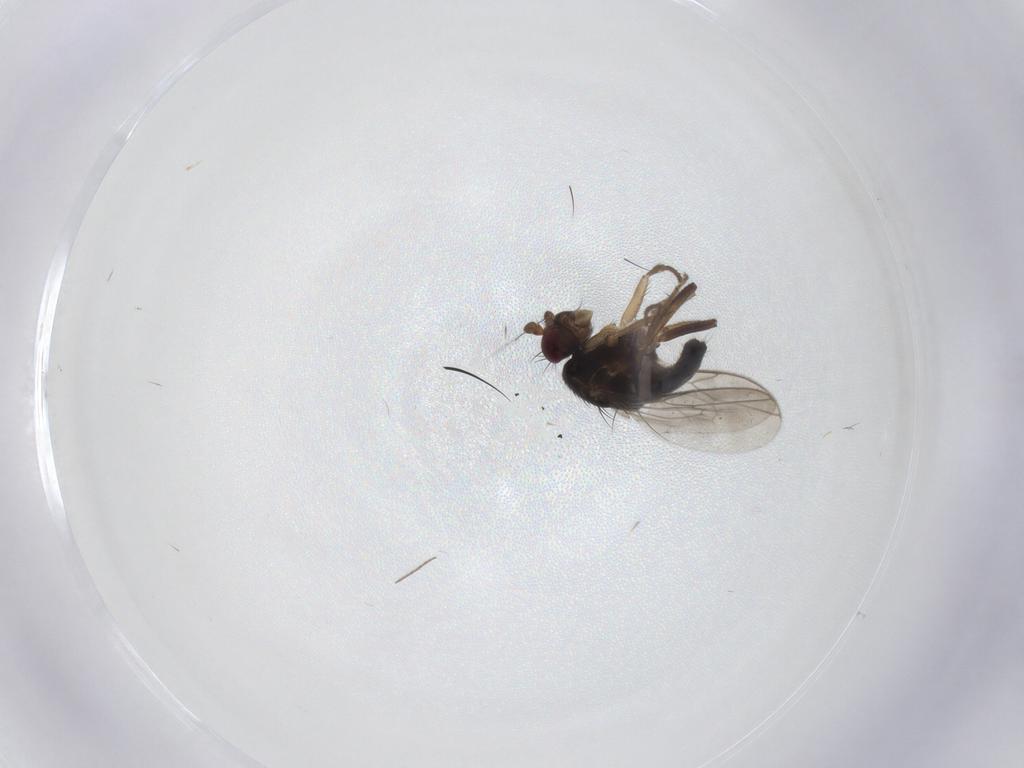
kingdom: Animalia
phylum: Arthropoda
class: Insecta
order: Diptera
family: Sphaeroceridae
